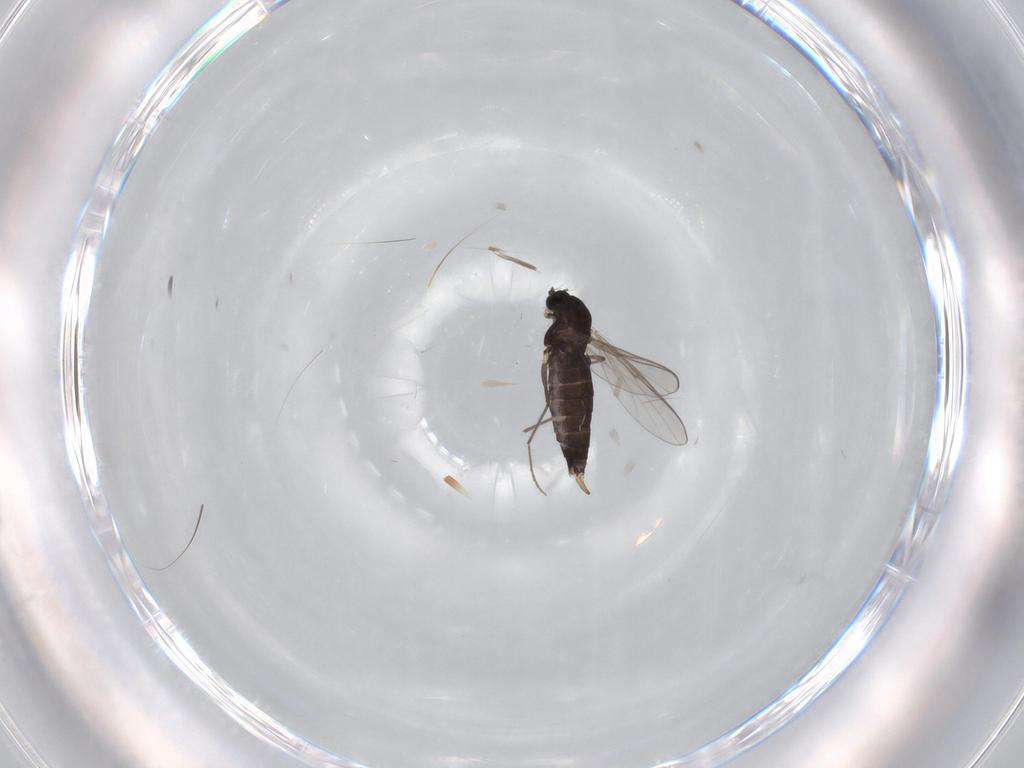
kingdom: Animalia
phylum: Arthropoda
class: Insecta
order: Diptera
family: Chironomidae
